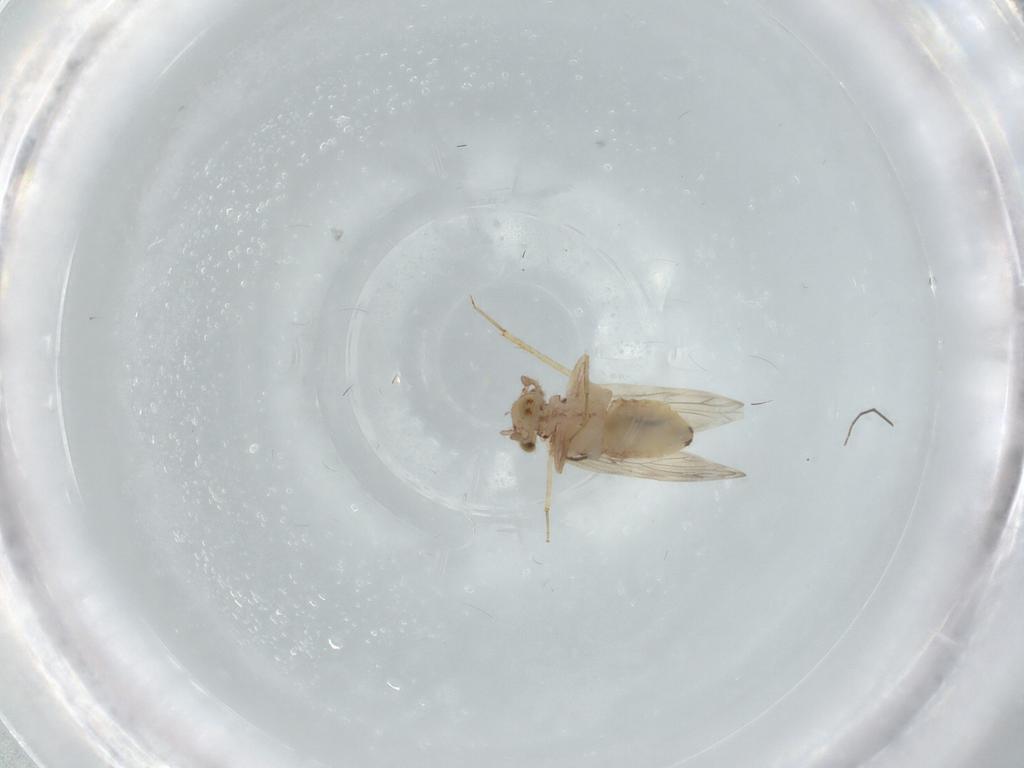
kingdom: Animalia
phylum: Arthropoda
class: Insecta
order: Psocodea
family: Lepidopsocidae
